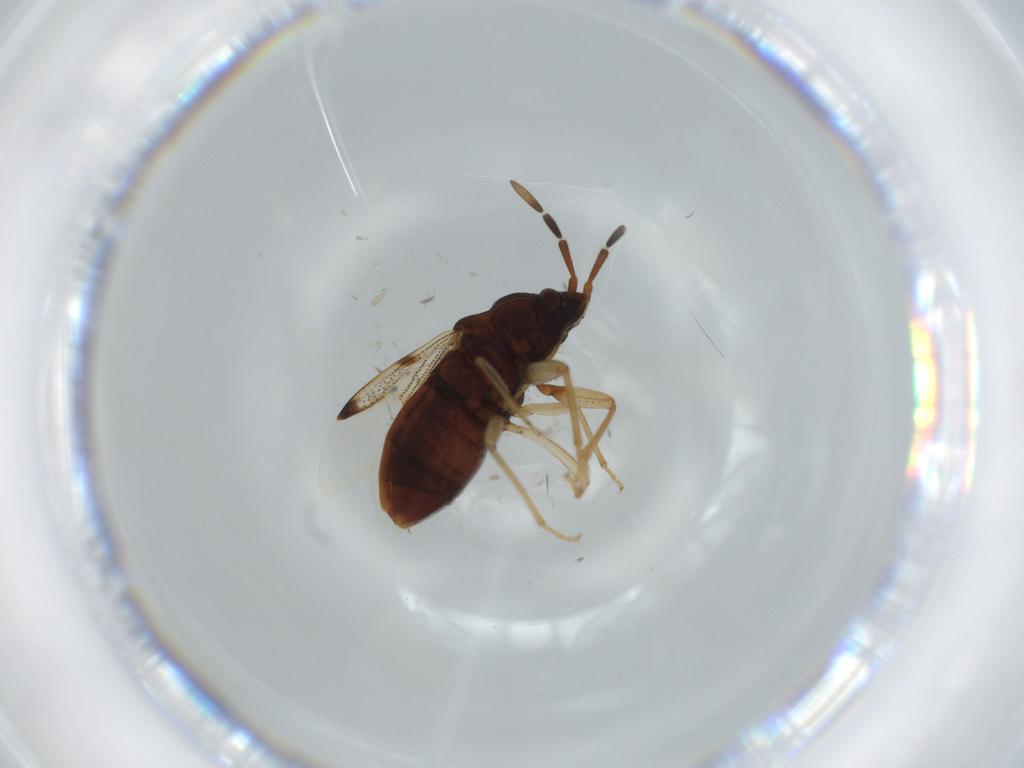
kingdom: Animalia
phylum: Arthropoda
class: Insecta
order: Hemiptera
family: Rhyparochromidae
